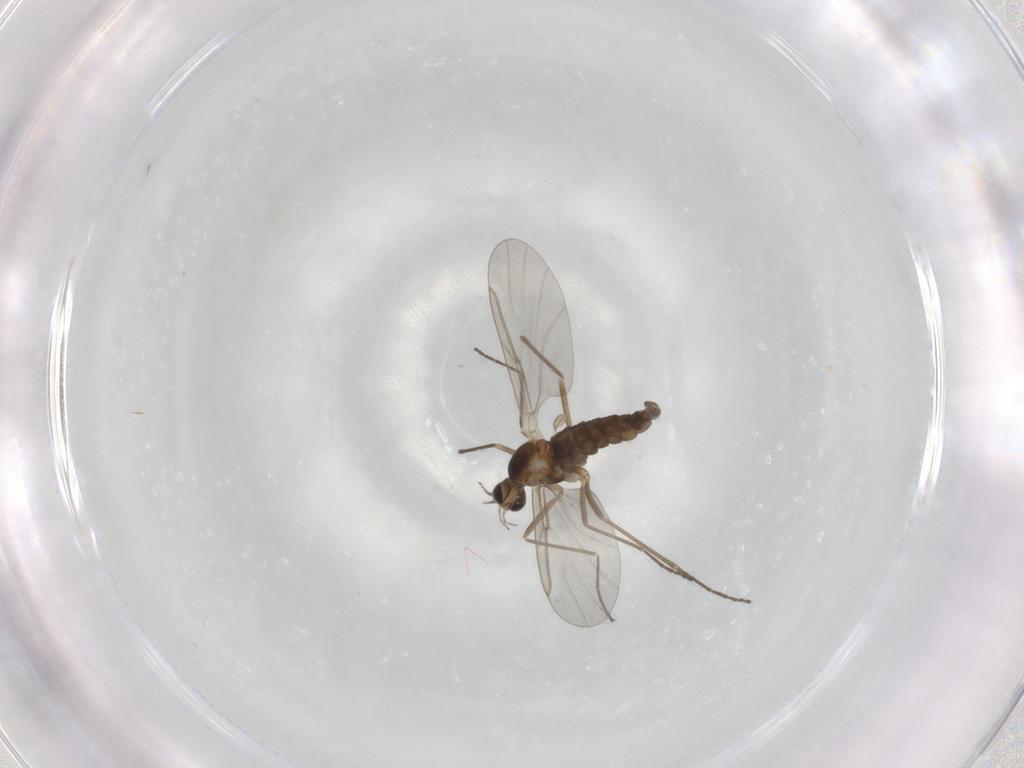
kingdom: Animalia
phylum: Arthropoda
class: Insecta
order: Diptera
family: Cecidomyiidae
